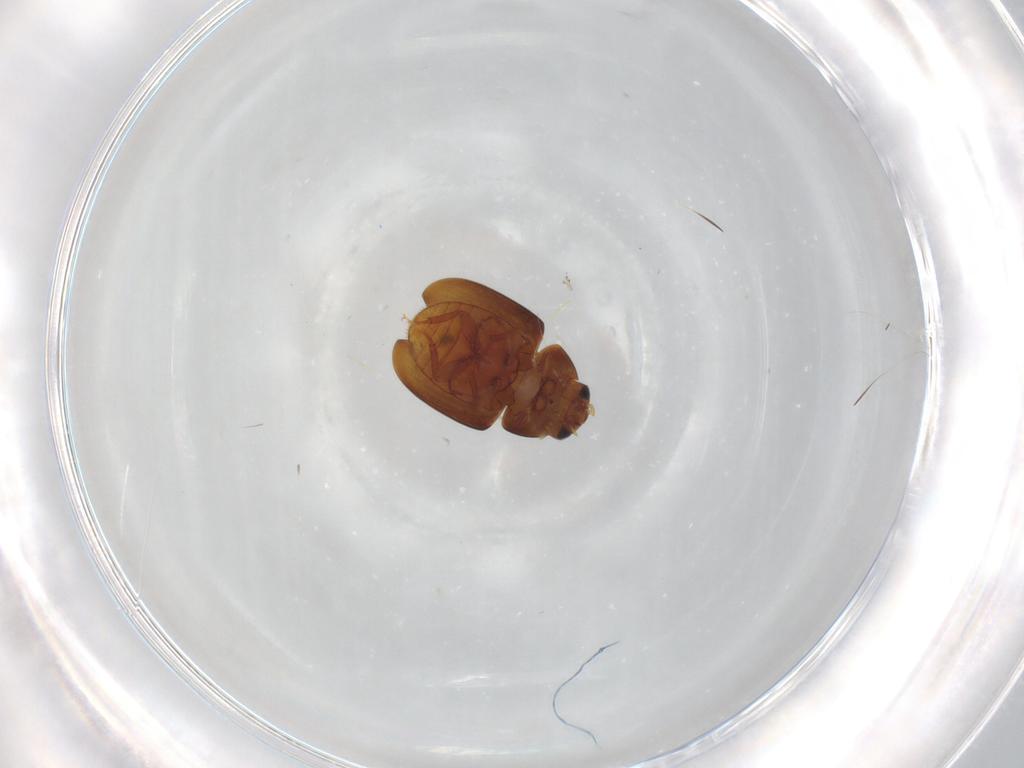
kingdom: Animalia
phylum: Arthropoda
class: Insecta
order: Coleoptera
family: Phalacridae
